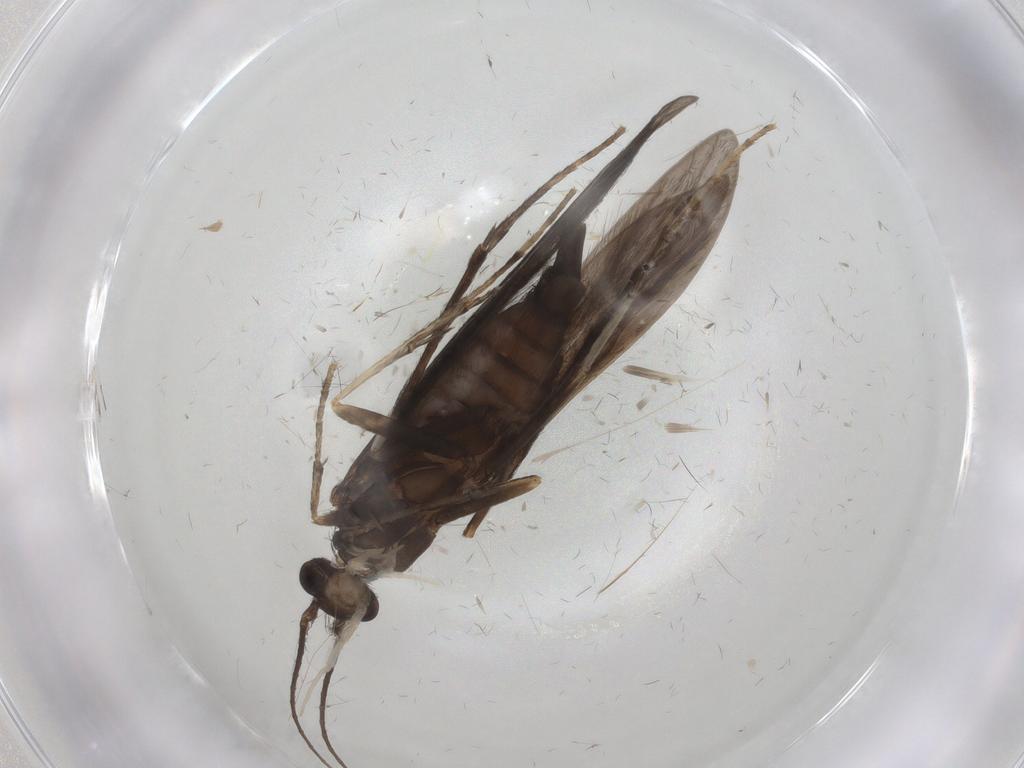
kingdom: Animalia
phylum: Arthropoda
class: Insecta
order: Trichoptera
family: Xiphocentronidae
